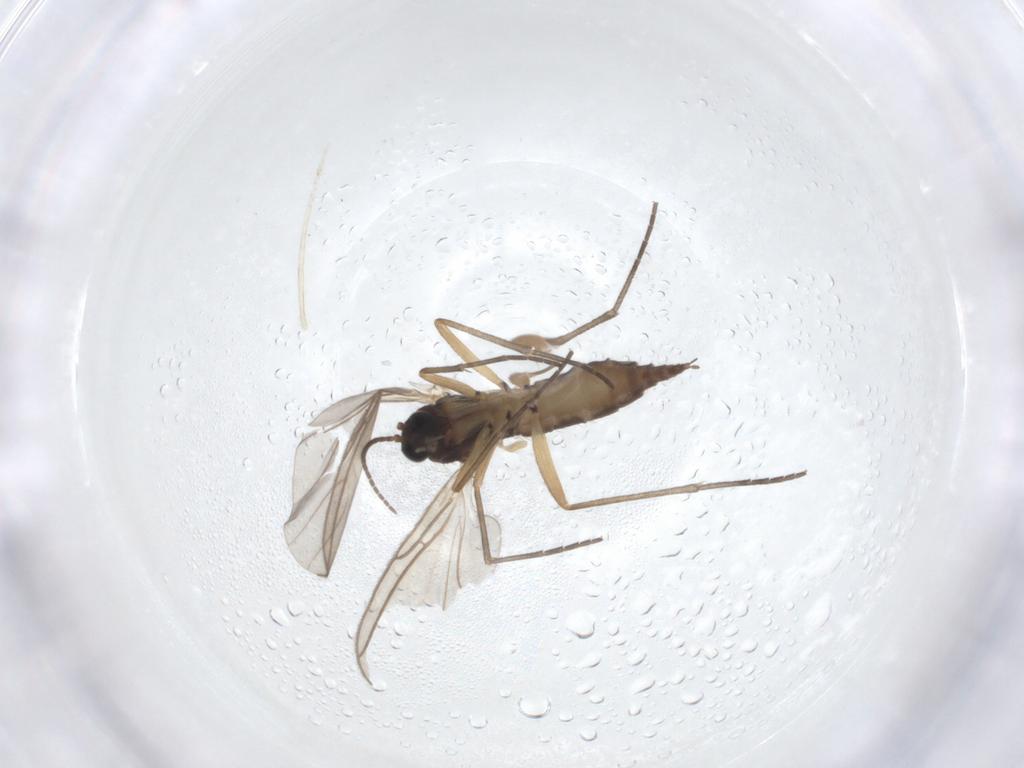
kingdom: Animalia
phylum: Arthropoda
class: Insecta
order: Diptera
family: Sciaridae
